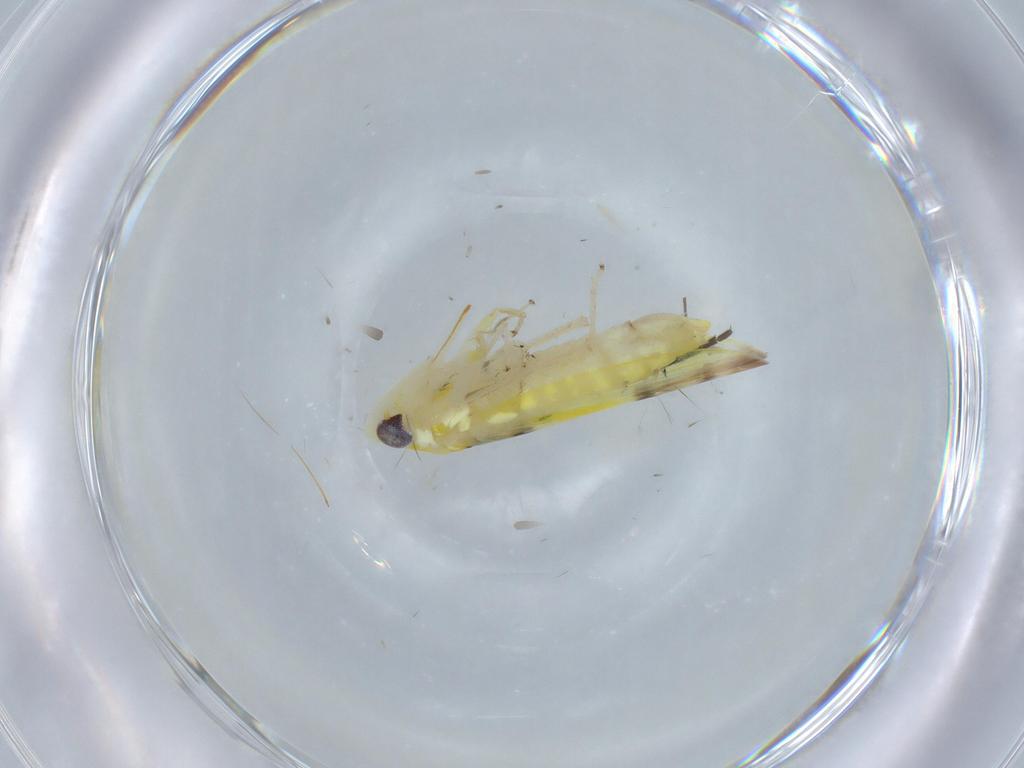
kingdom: Animalia
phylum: Arthropoda
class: Insecta
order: Hemiptera
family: Cicadellidae
